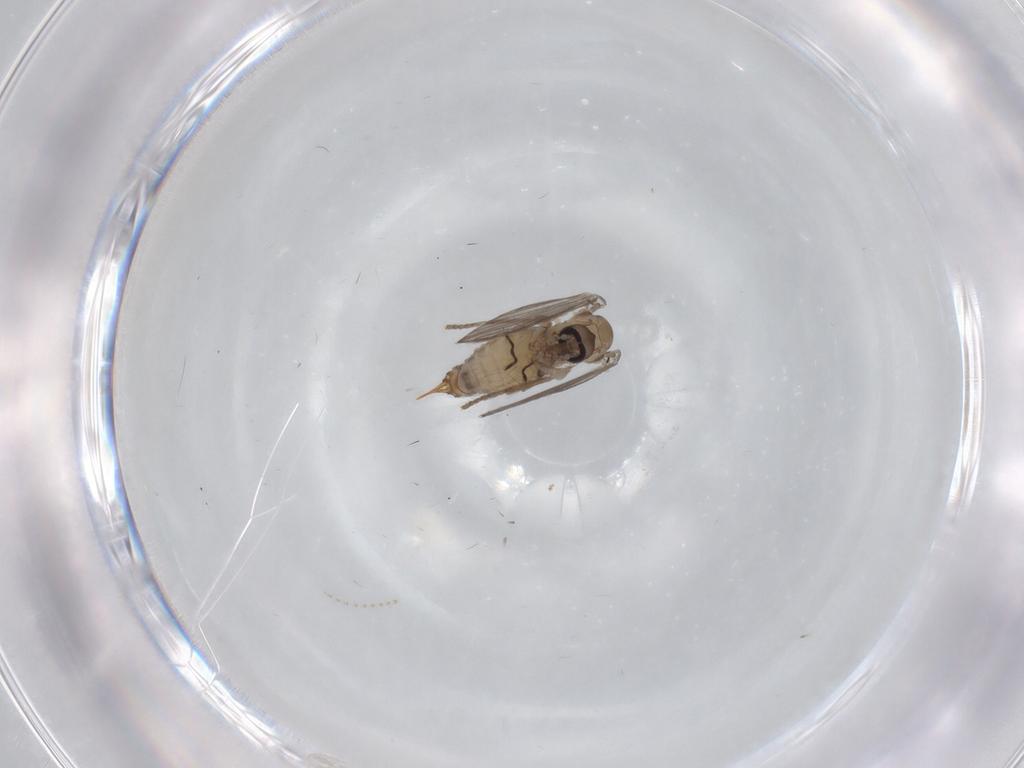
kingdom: Animalia
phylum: Arthropoda
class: Insecta
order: Diptera
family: Psychodidae
